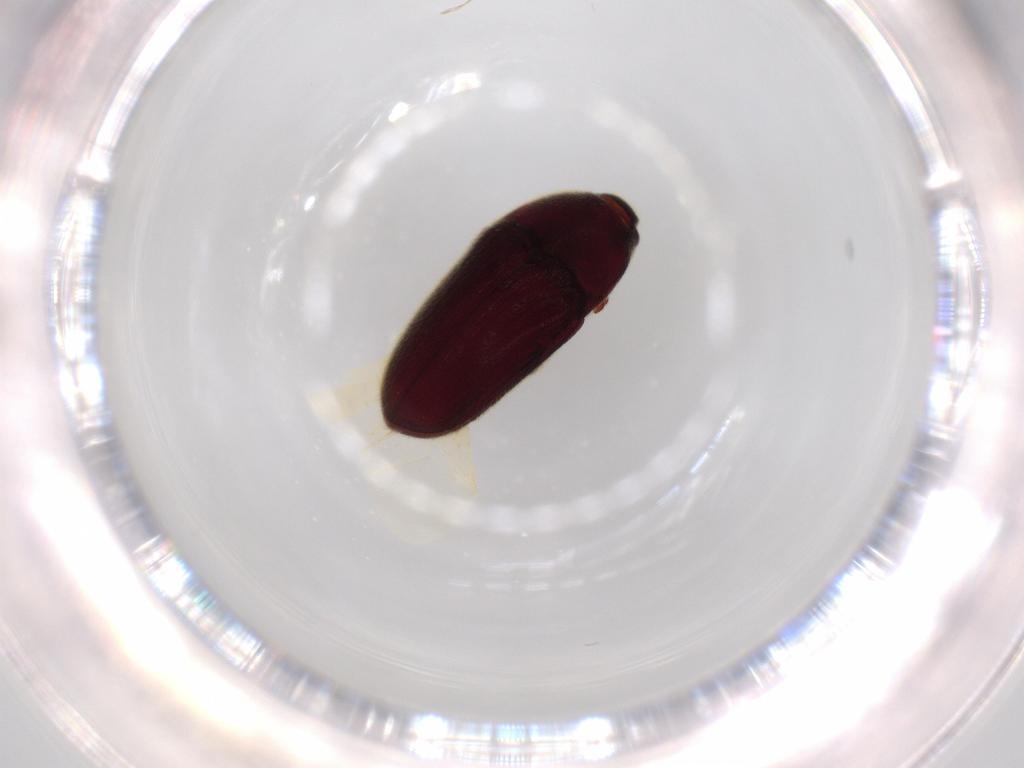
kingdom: Animalia
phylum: Arthropoda
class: Insecta
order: Coleoptera
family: Throscidae
